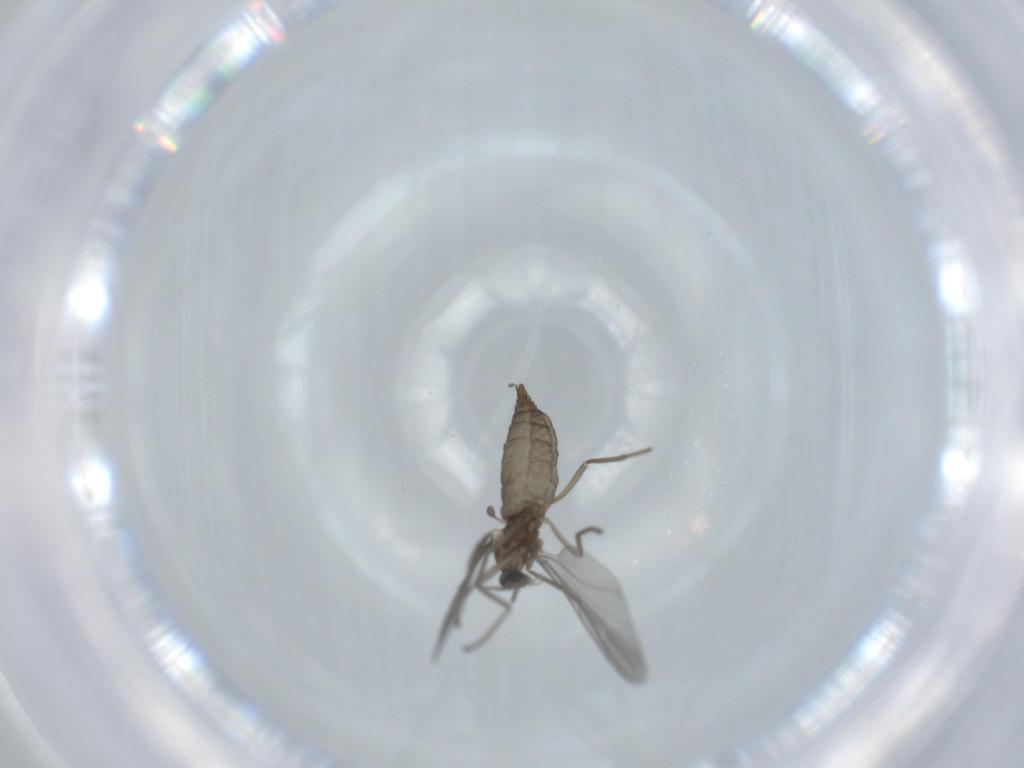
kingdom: Animalia
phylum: Arthropoda
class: Insecta
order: Diptera
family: Cecidomyiidae
